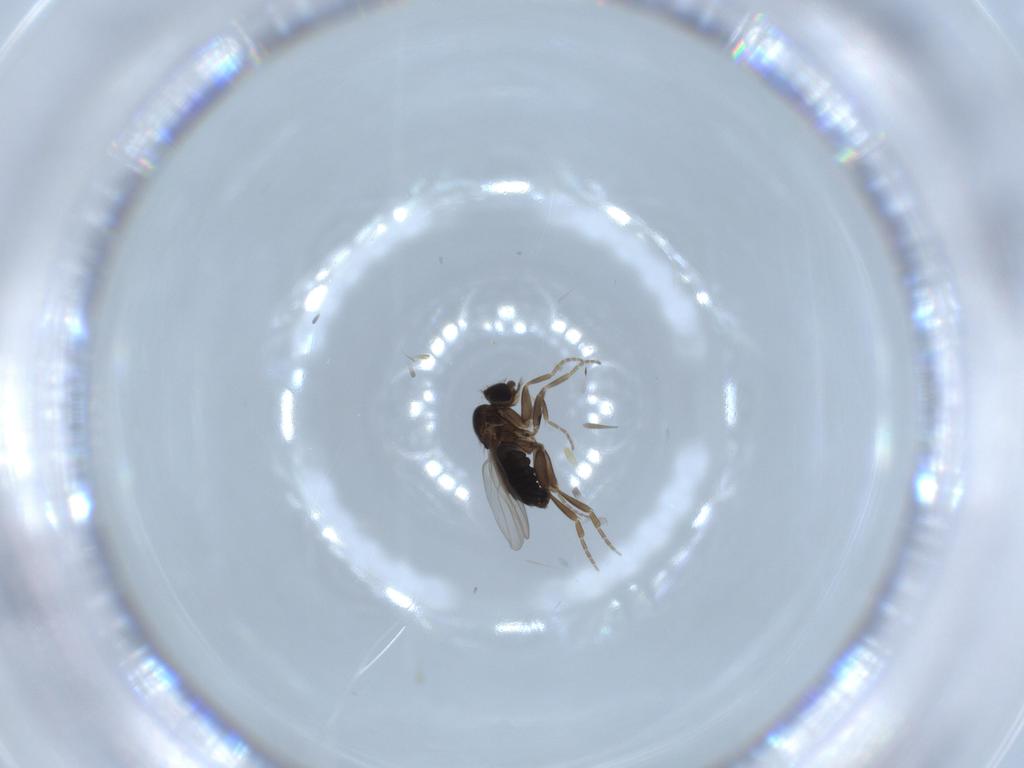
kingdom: Animalia
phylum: Arthropoda
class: Insecta
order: Diptera
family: Phoridae
